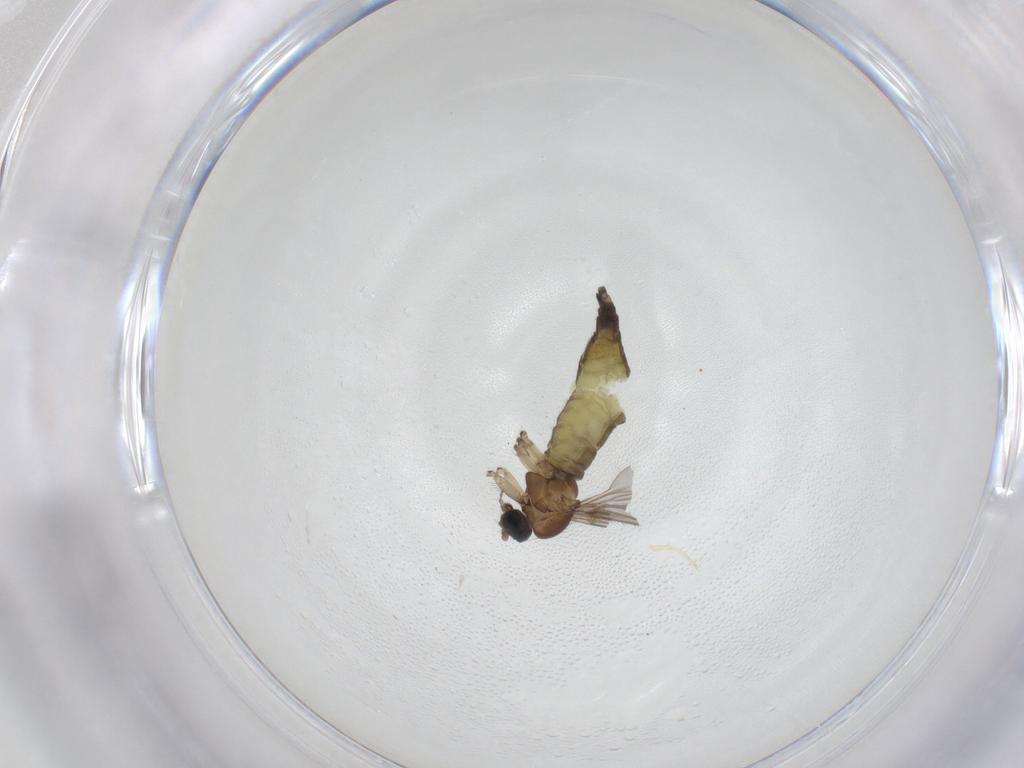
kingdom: Animalia
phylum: Arthropoda
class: Insecta
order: Diptera
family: Sciaridae
